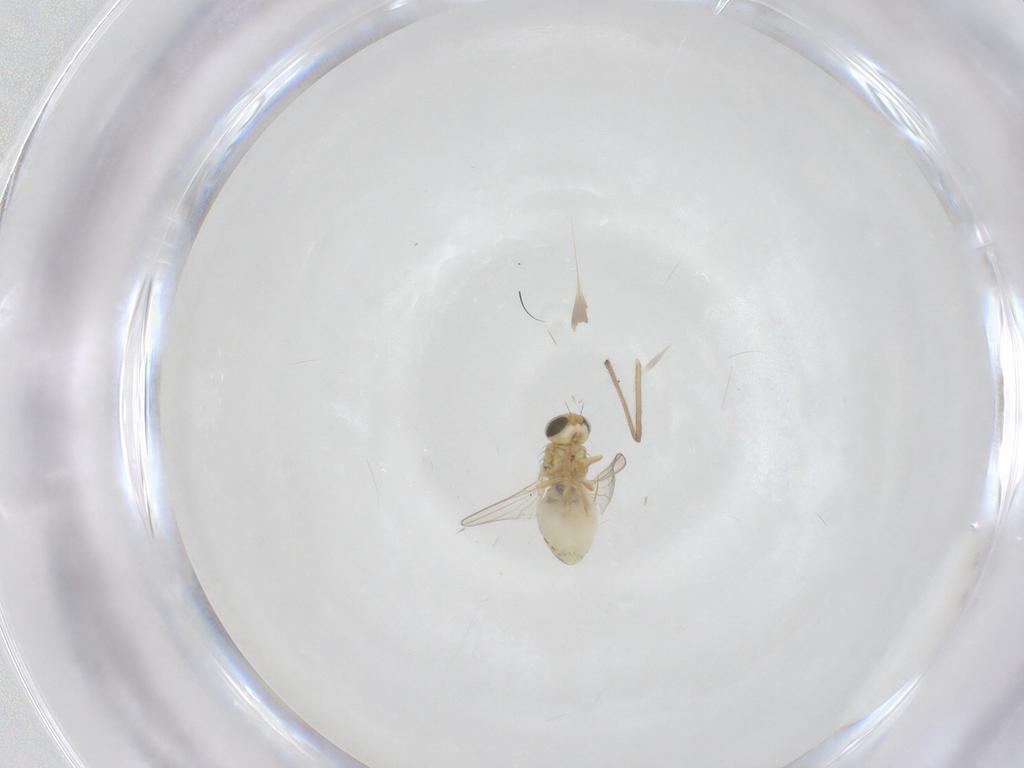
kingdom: Animalia
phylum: Arthropoda
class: Insecta
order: Diptera
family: Chyromyidae
